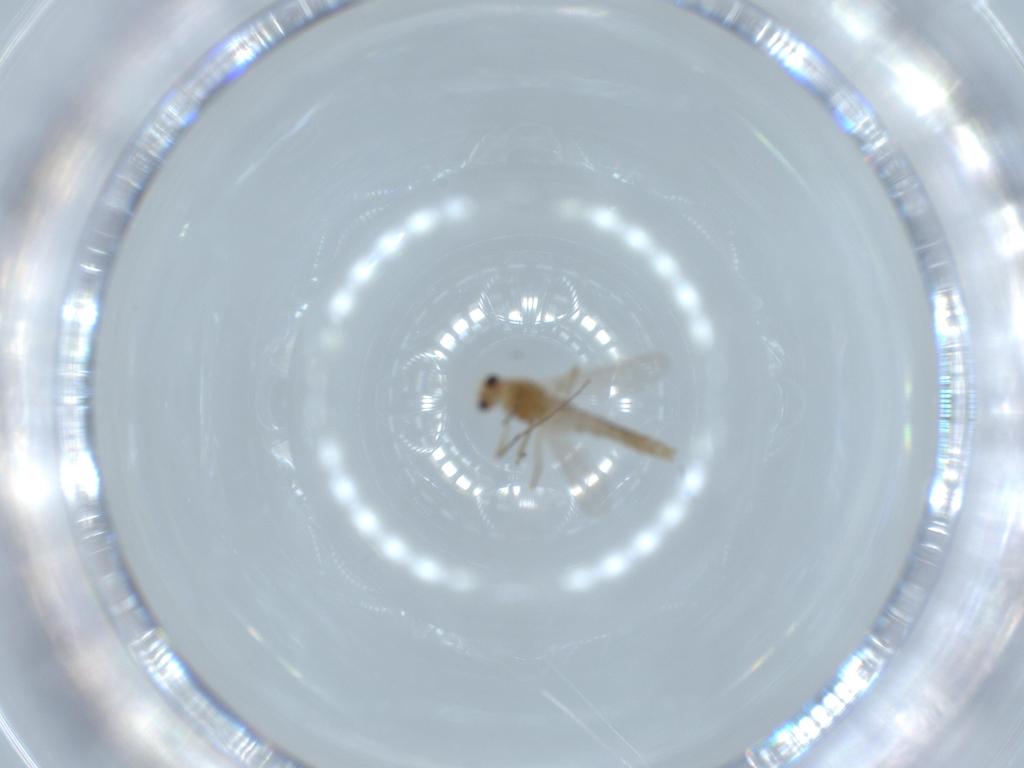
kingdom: Animalia
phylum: Arthropoda
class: Insecta
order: Diptera
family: Chironomidae
